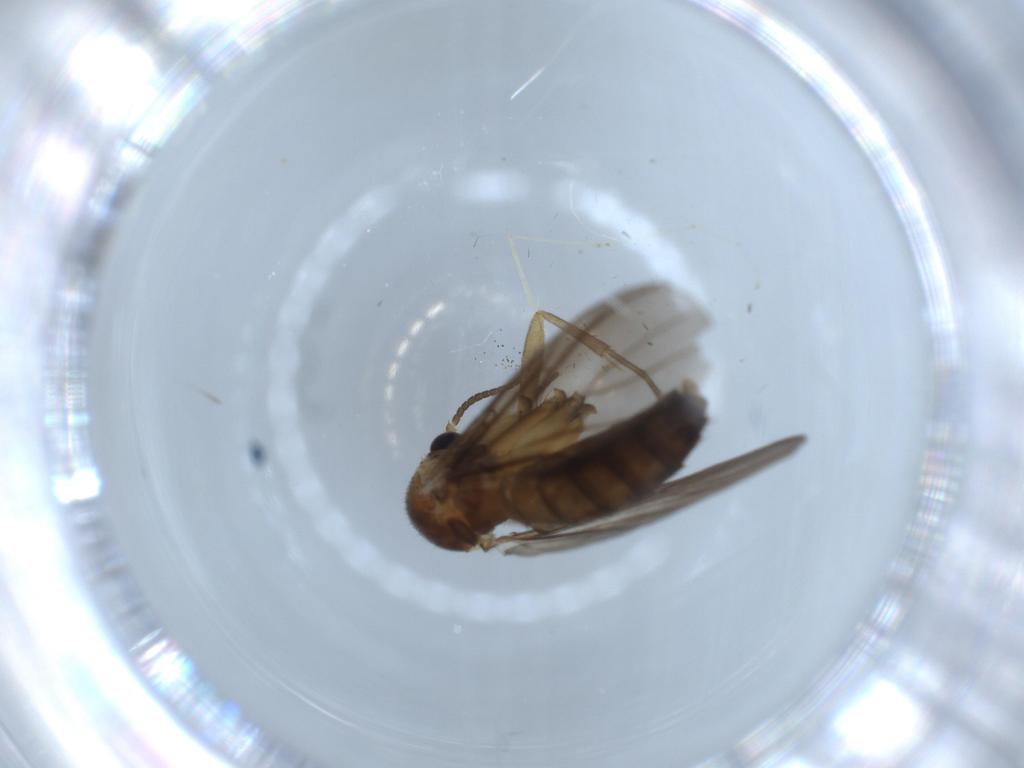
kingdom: Animalia
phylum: Arthropoda
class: Insecta
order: Diptera
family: Mycetophilidae
